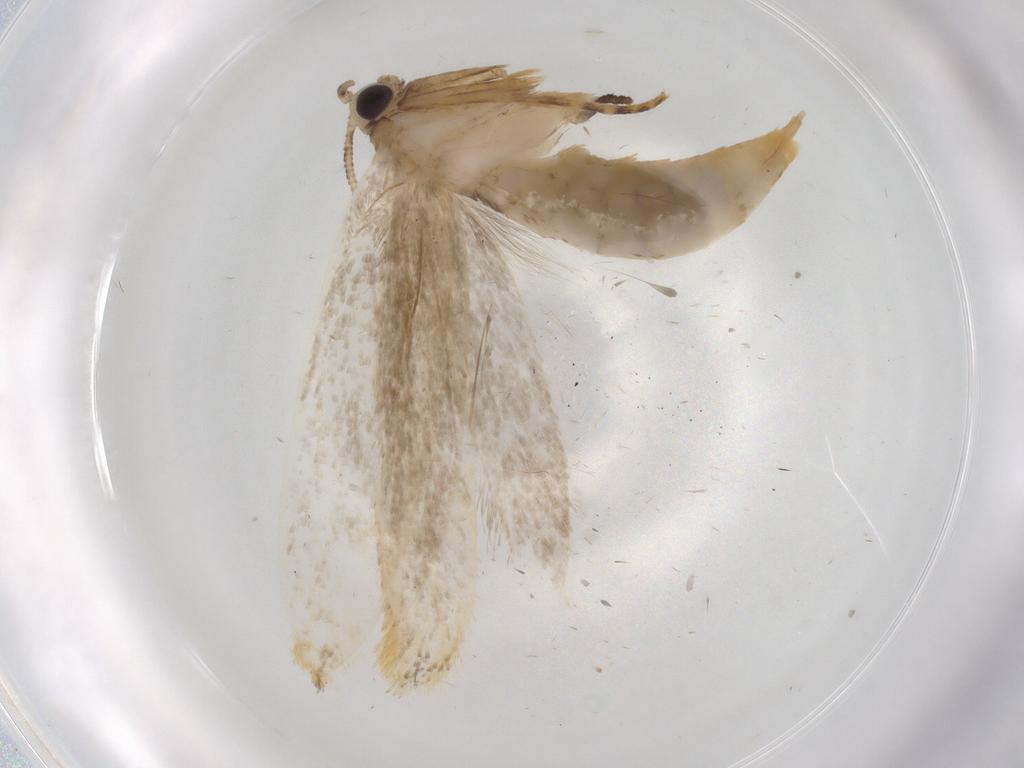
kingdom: Animalia
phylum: Arthropoda
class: Insecta
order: Lepidoptera
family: Tineidae
